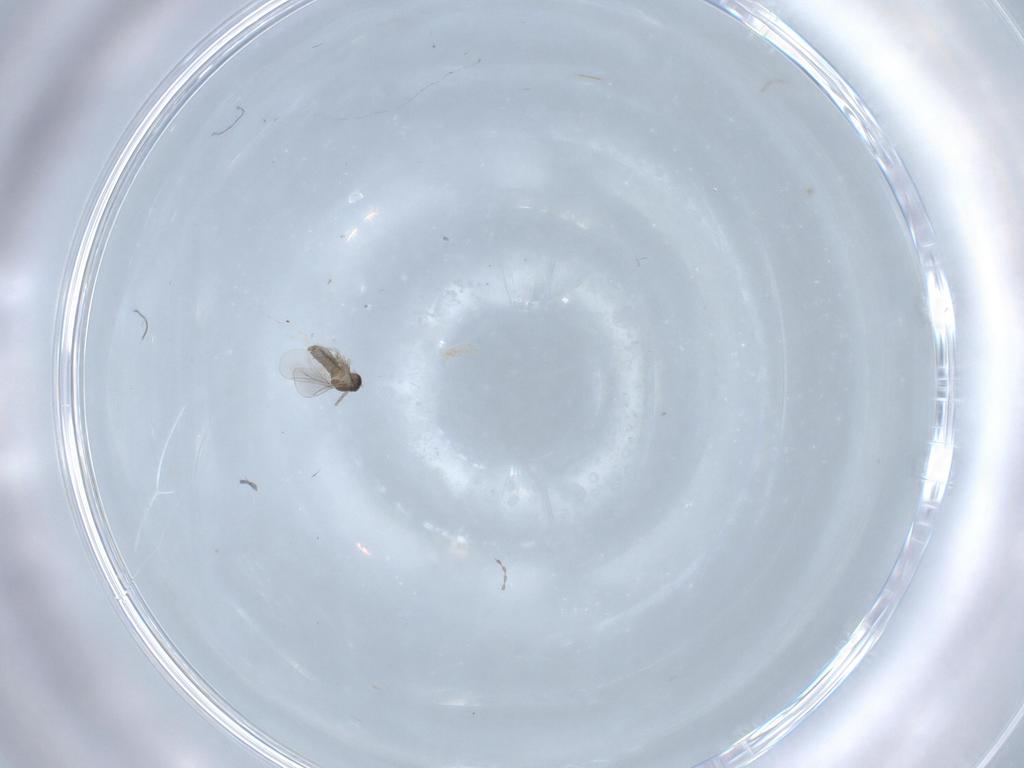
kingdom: Animalia
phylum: Arthropoda
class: Insecta
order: Diptera
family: Cecidomyiidae
